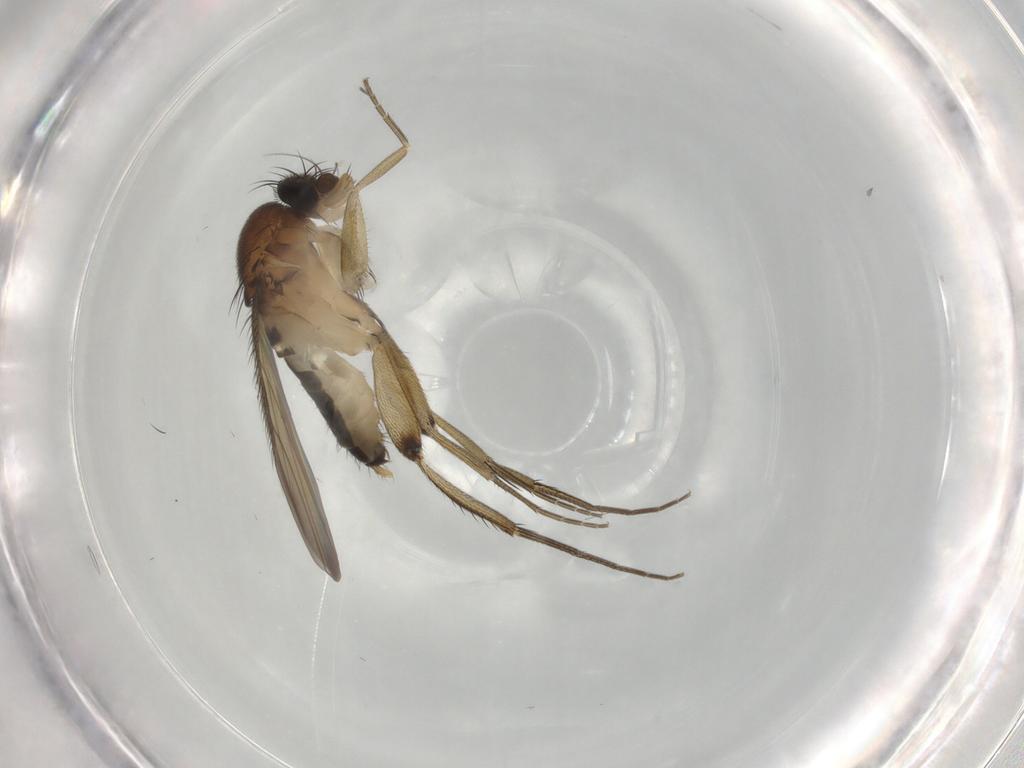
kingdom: Animalia
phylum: Arthropoda
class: Insecta
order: Diptera
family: Phoridae
